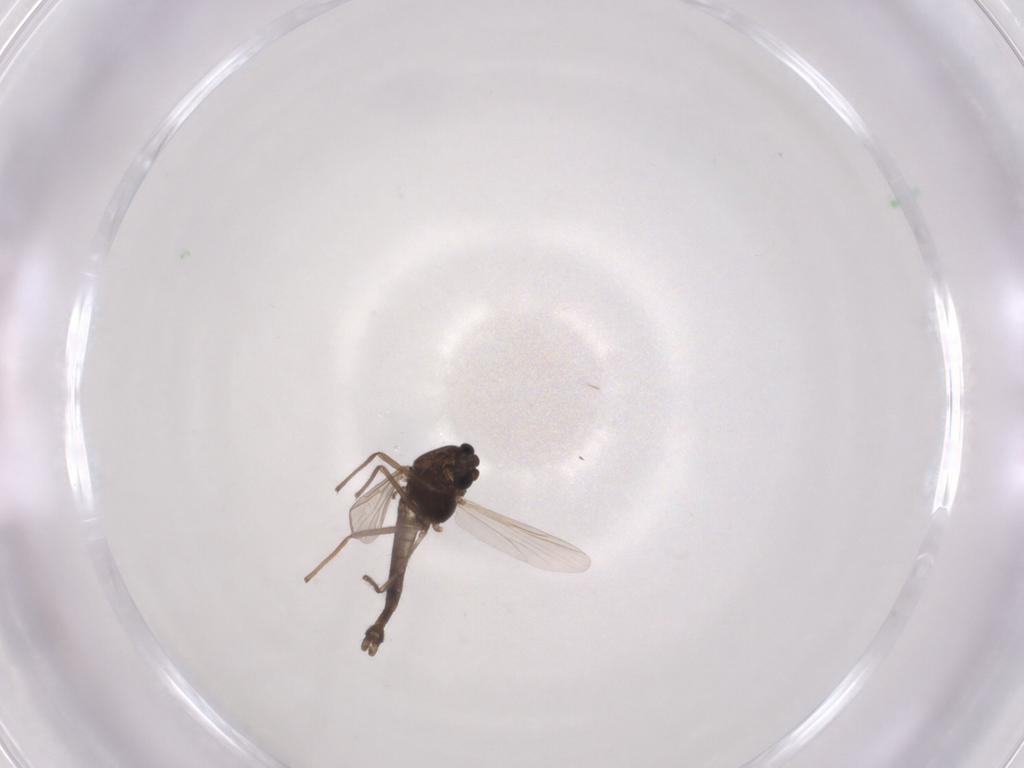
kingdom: Animalia
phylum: Arthropoda
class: Insecta
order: Diptera
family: Chironomidae
